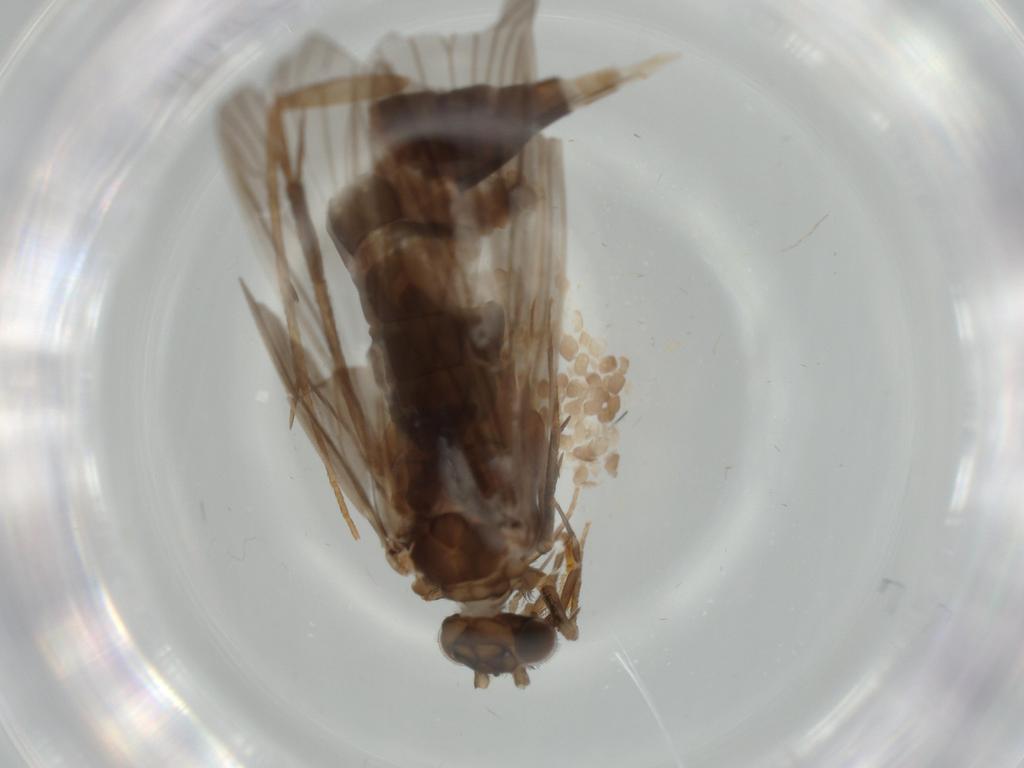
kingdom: Animalia
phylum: Arthropoda
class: Insecta
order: Trichoptera
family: Philopotamidae
